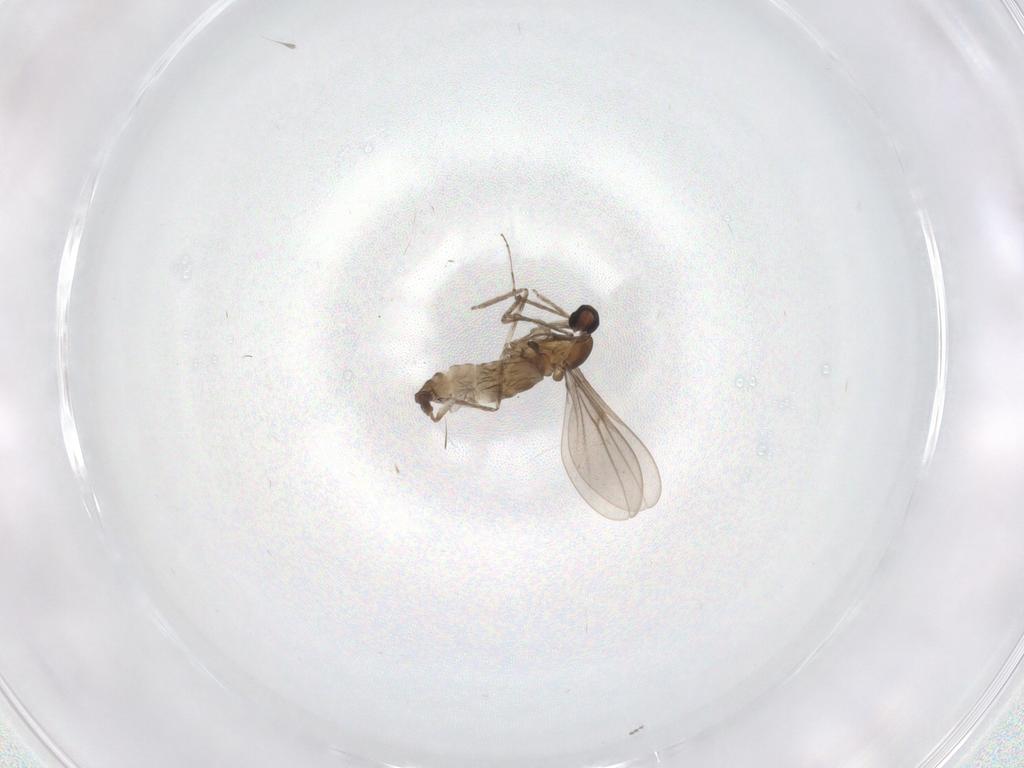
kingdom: Animalia
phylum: Arthropoda
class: Insecta
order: Diptera
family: Cecidomyiidae
